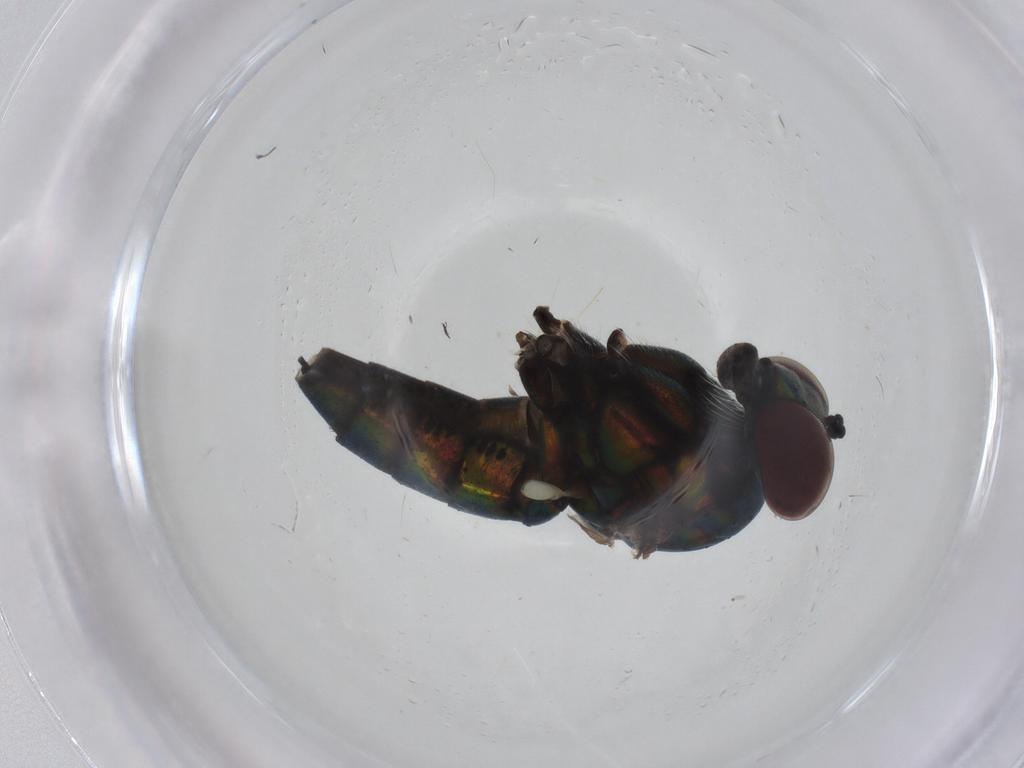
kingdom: Animalia
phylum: Arthropoda
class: Insecta
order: Diptera
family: Dolichopodidae
